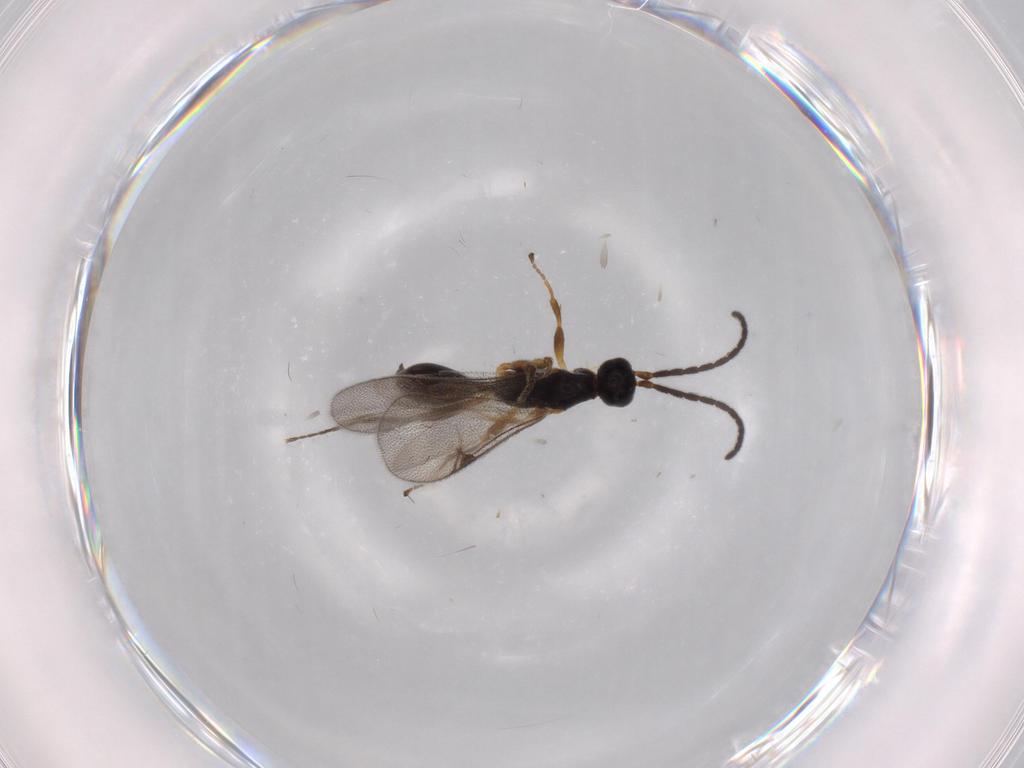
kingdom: Animalia
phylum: Arthropoda
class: Insecta
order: Hymenoptera
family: Proctotrupidae
